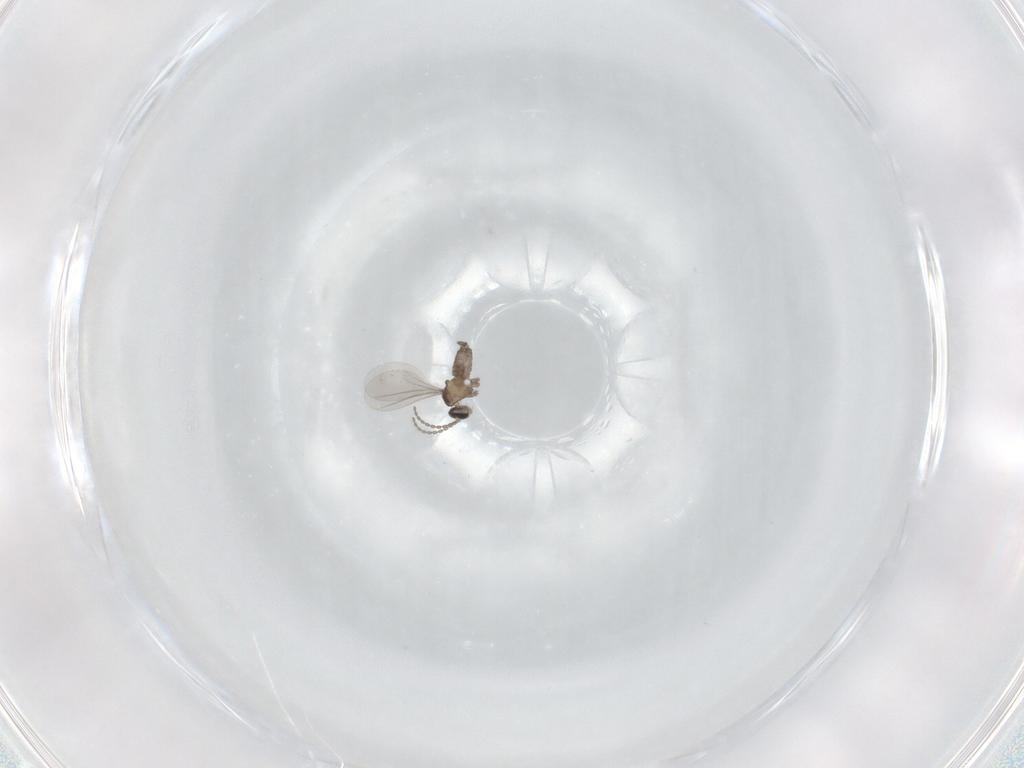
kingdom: Animalia
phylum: Arthropoda
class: Insecta
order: Diptera
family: Cecidomyiidae
